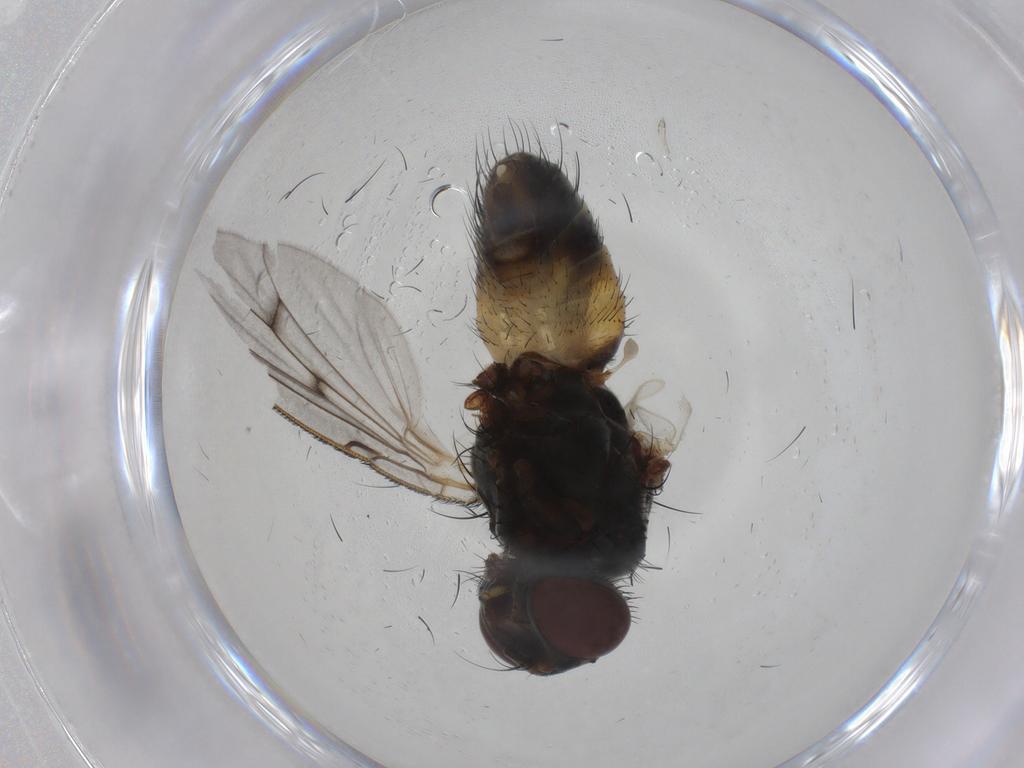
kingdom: Animalia
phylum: Arthropoda
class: Insecta
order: Diptera
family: Muscidae
